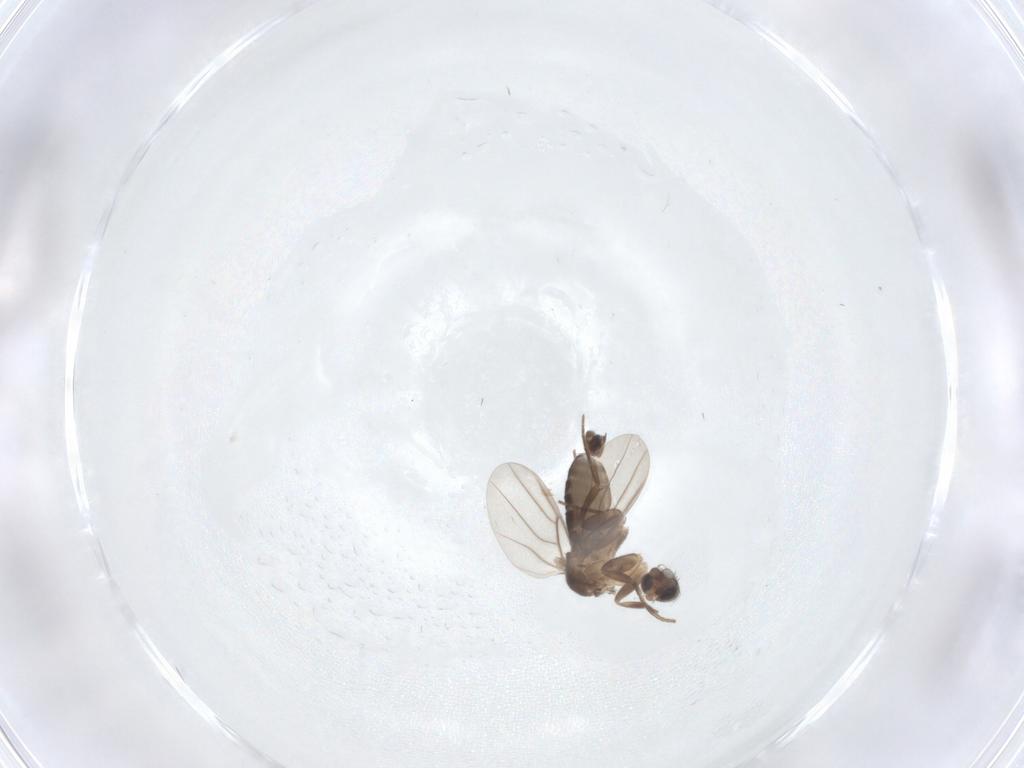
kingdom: Animalia
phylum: Arthropoda
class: Insecta
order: Diptera
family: Phoridae
